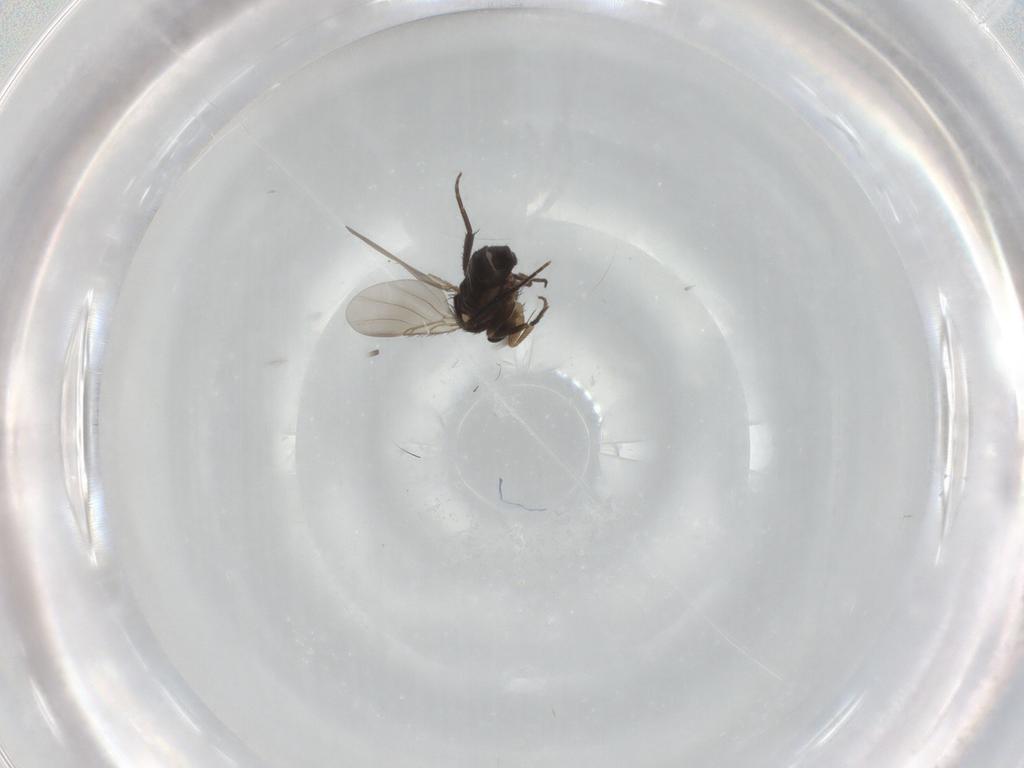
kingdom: Animalia
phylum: Arthropoda
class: Insecta
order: Diptera
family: Phoridae
